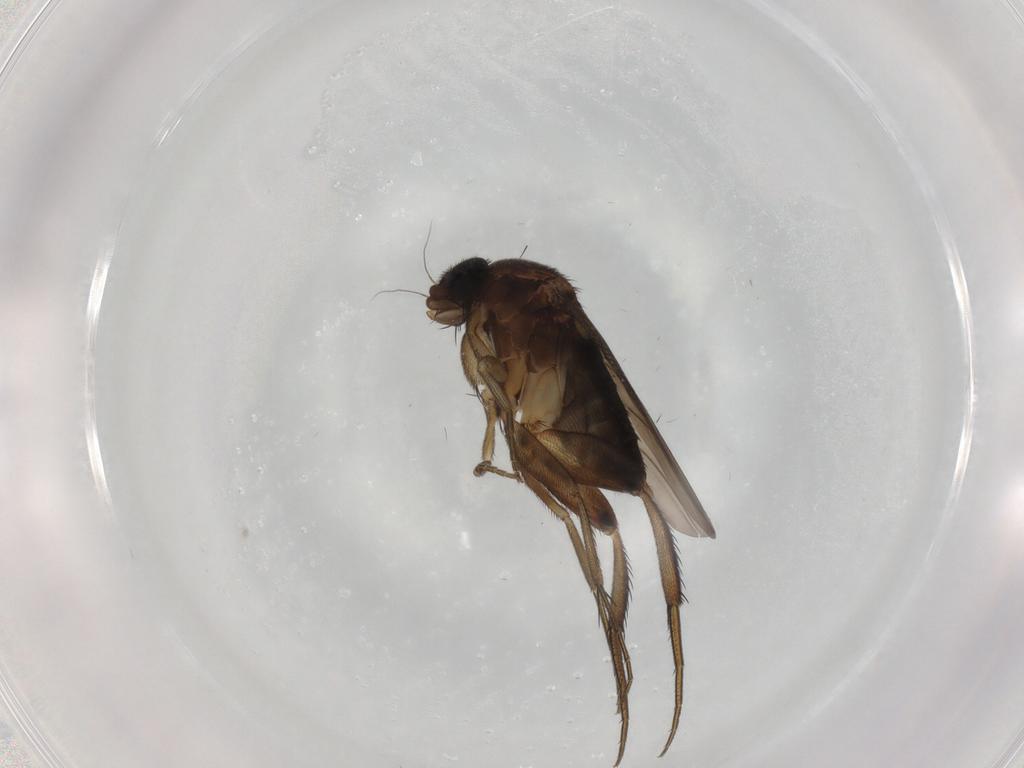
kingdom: Animalia
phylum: Arthropoda
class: Insecta
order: Diptera
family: Phoridae
